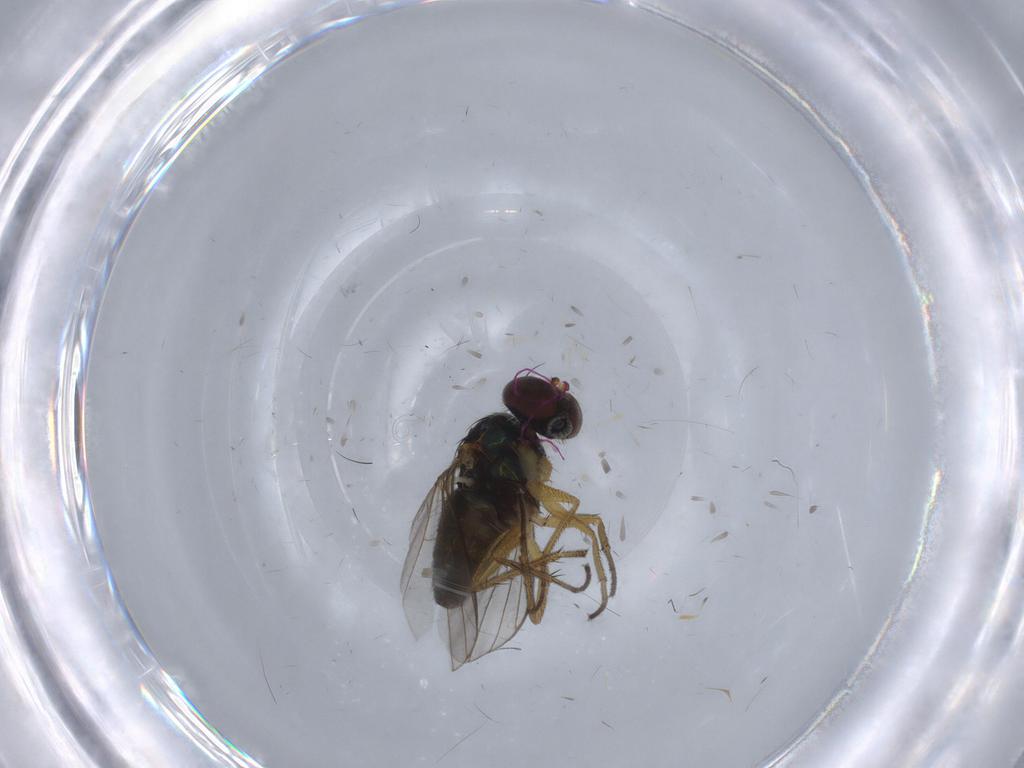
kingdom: Animalia
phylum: Arthropoda
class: Insecta
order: Diptera
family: Dolichopodidae
